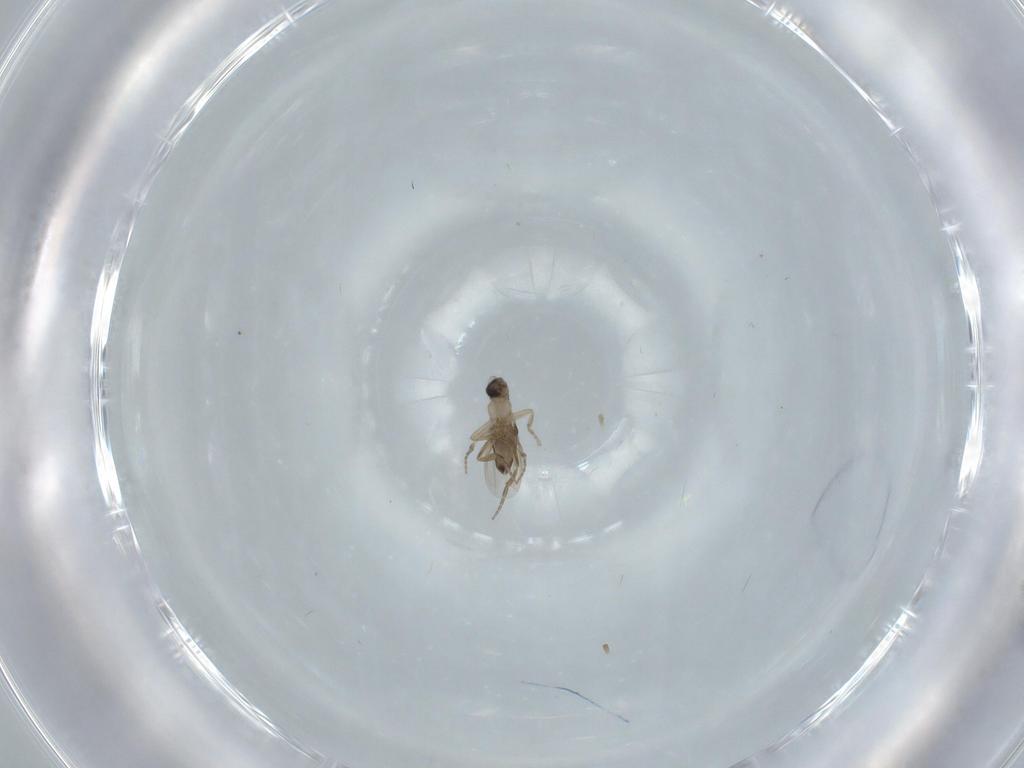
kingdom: Animalia
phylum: Arthropoda
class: Insecta
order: Diptera
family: Phoridae
